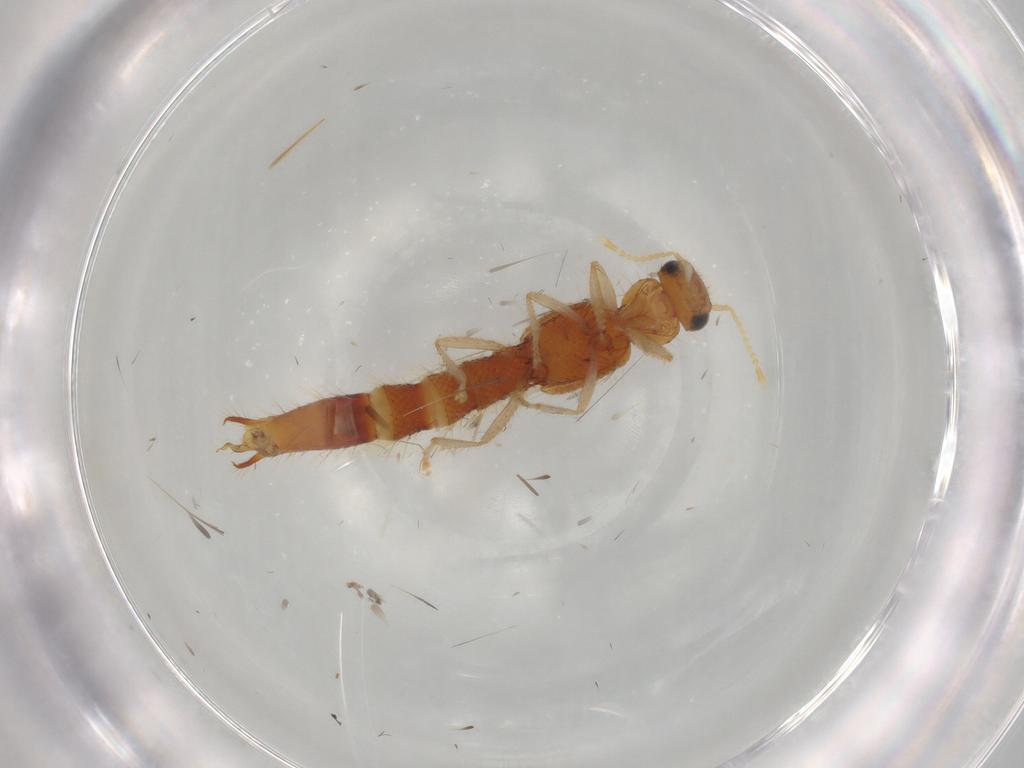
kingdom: Animalia
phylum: Arthropoda
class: Insecta
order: Coleoptera
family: Staphylinidae
